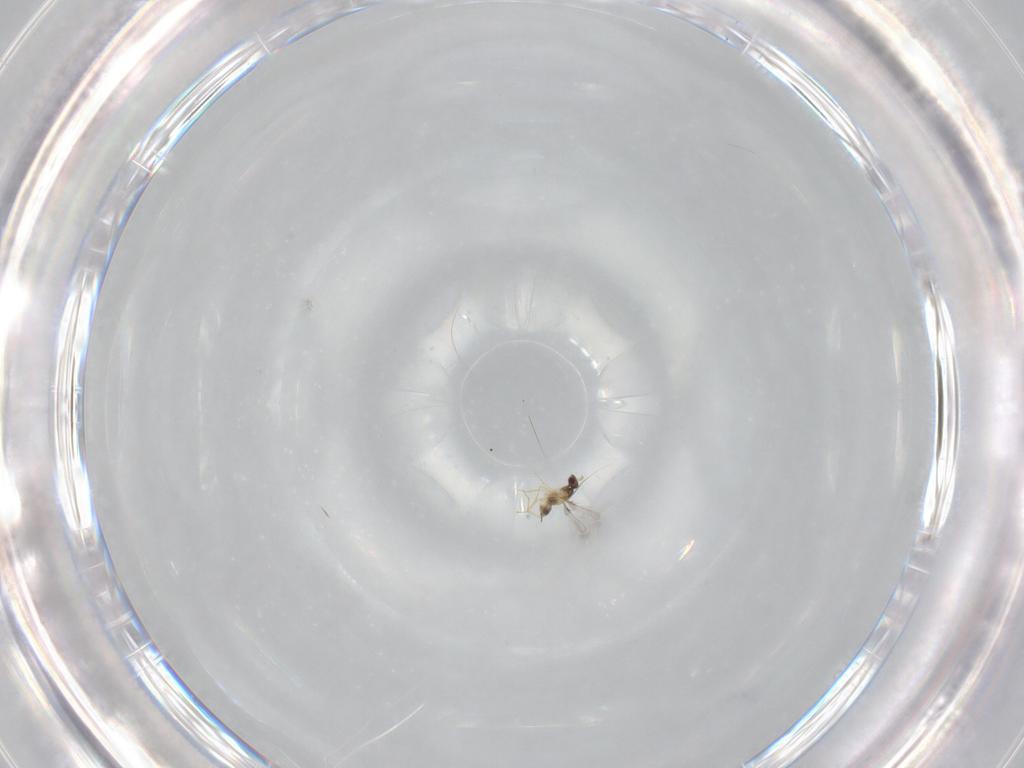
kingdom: Animalia
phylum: Arthropoda
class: Insecta
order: Hymenoptera
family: Mymaridae
